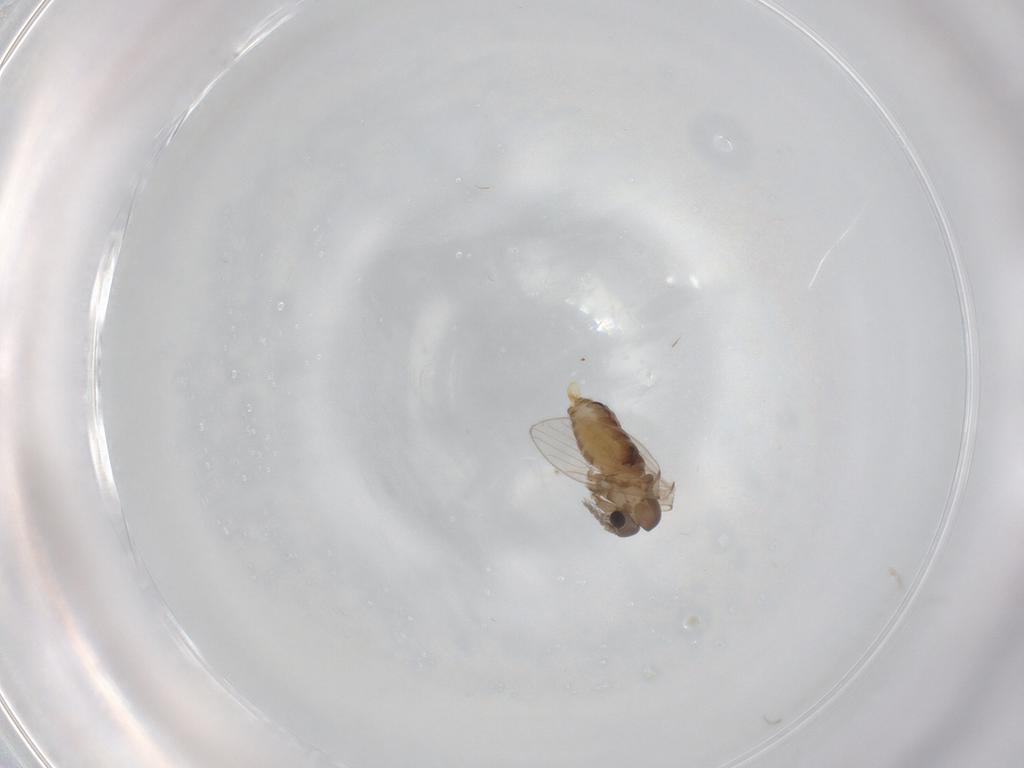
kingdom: Animalia
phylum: Arthropoda
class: Insecta
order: Diptera
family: Psychodidae
